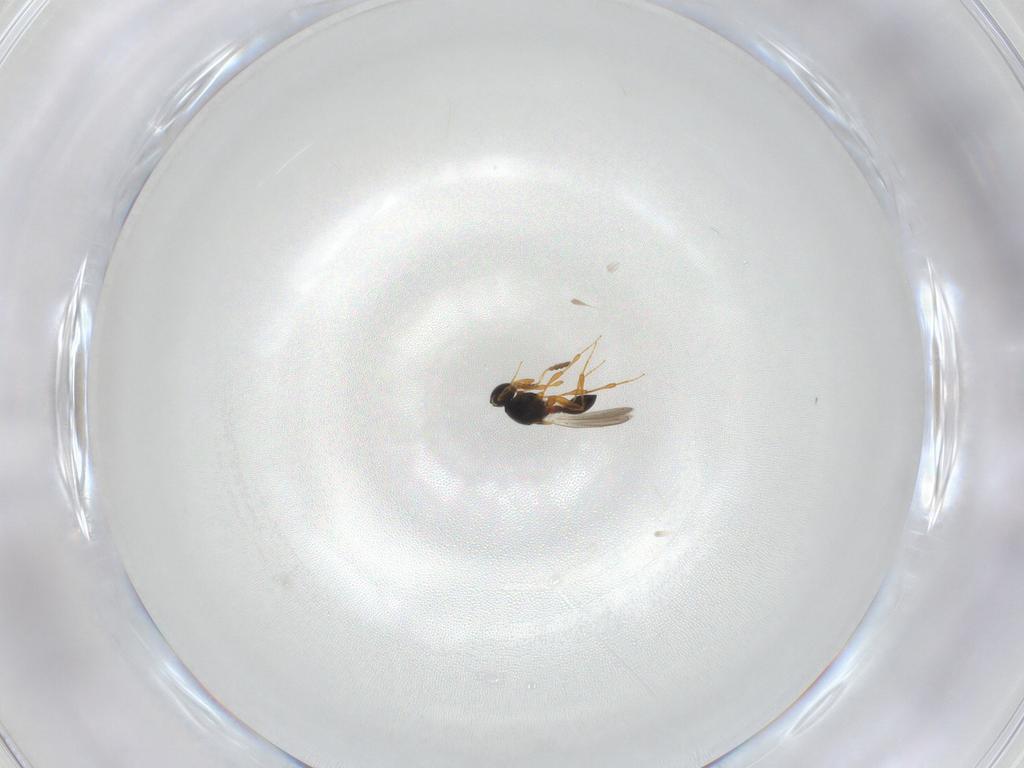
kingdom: Animalia
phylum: Arthropoda
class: Insecta
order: Hymenoptera
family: Platygastridae
